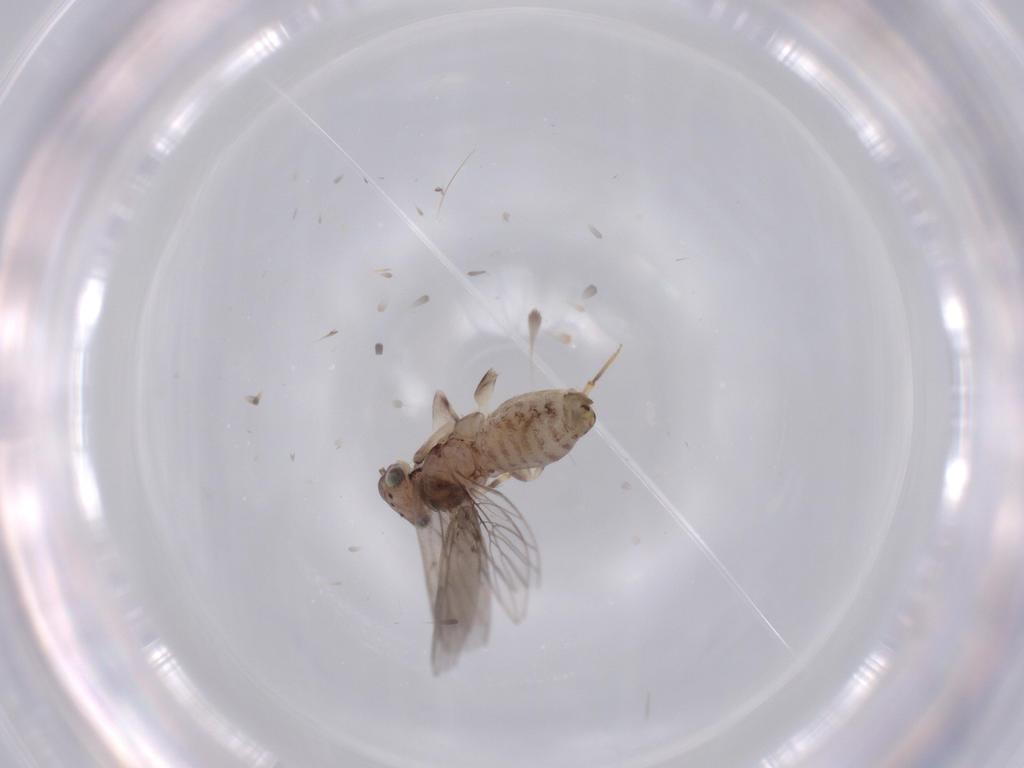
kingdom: Animalia
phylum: Arthropoda
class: Insecta
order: Psocodea
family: Lepidopsocidae
